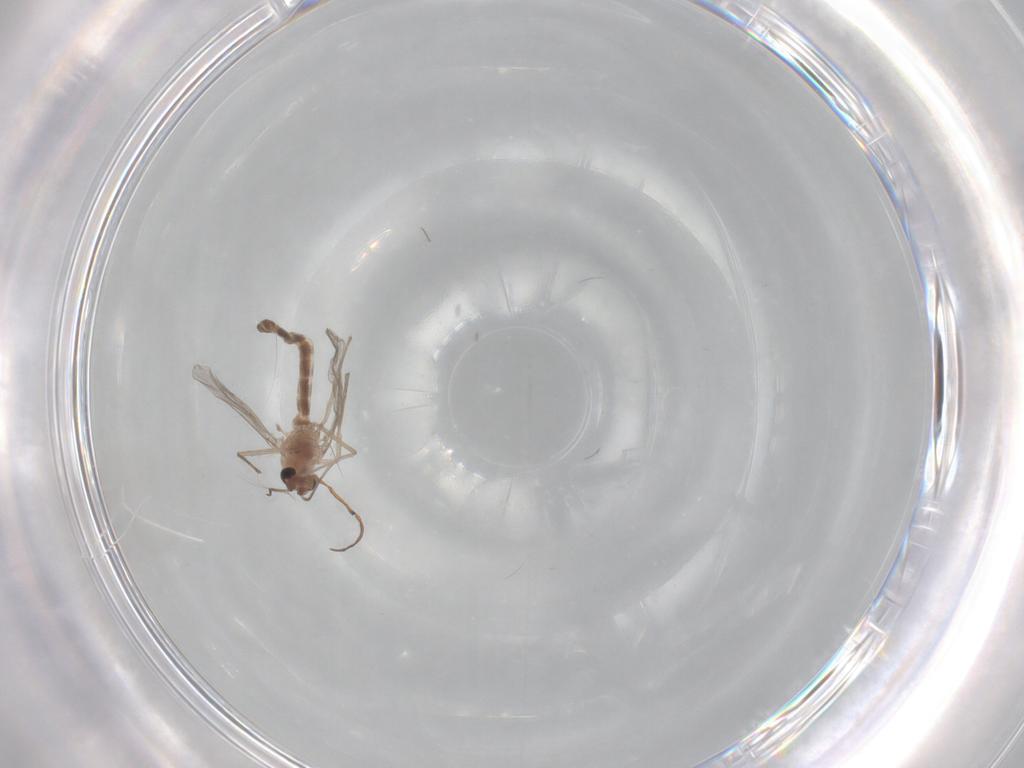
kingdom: Animalia
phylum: Arthropoda
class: Insecta
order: Diptera
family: Chironomidae
